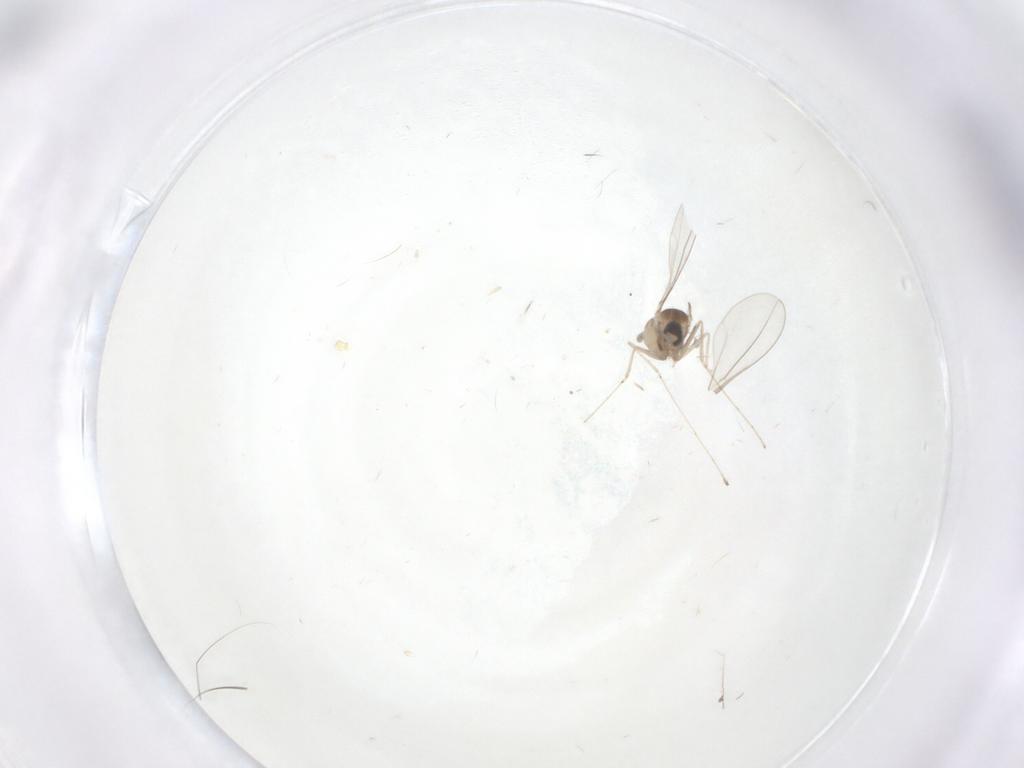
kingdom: Animalia
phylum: Arthropoda
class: Insecta
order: Diptera
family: Cecidomyiidae
